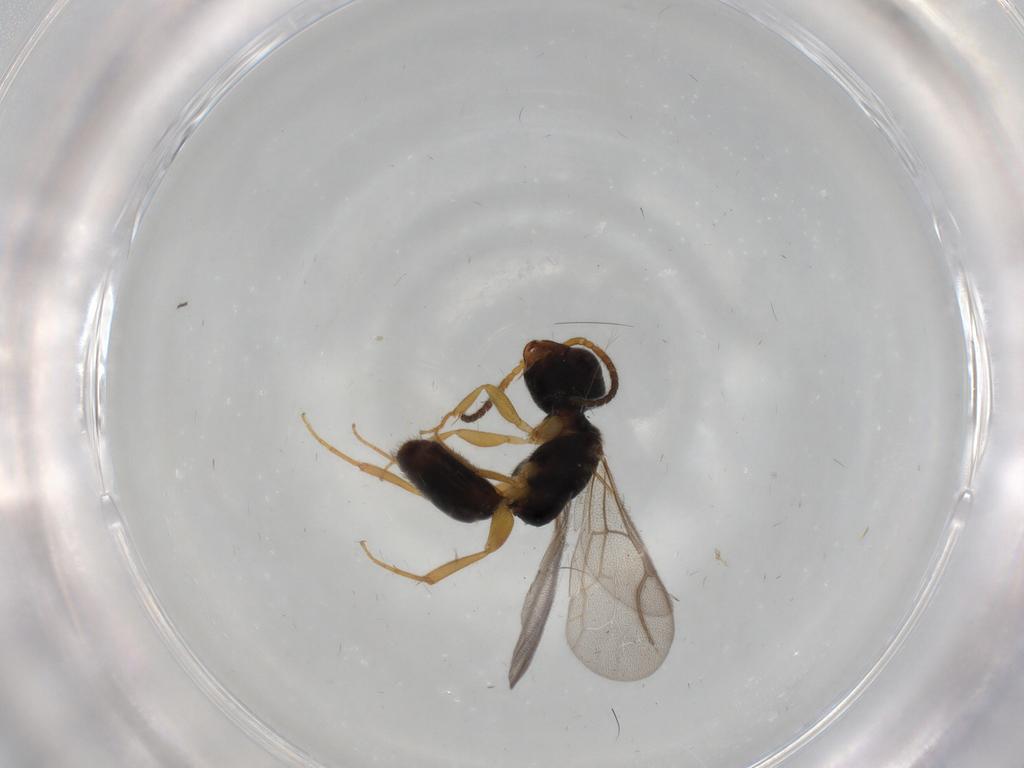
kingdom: Animalia
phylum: Arthropoda
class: Insecta
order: Hymenoptera
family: Bethylidae
